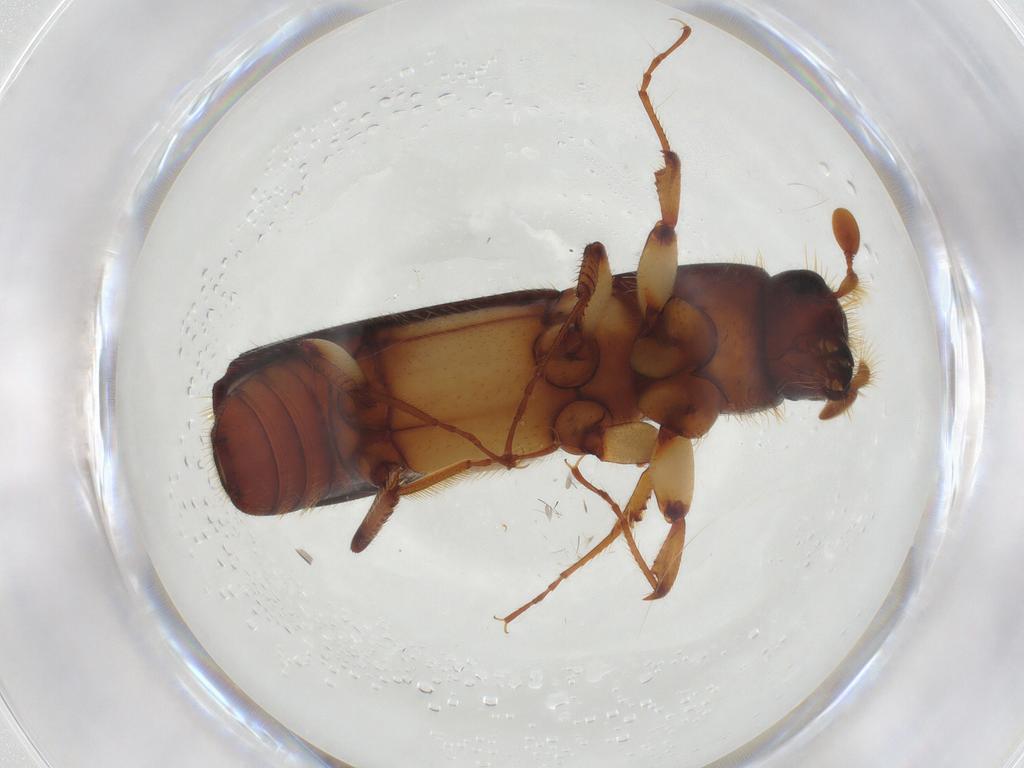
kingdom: Animalia
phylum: Arthropoda
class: Insecta
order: Coleoptera
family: Curculionidae
